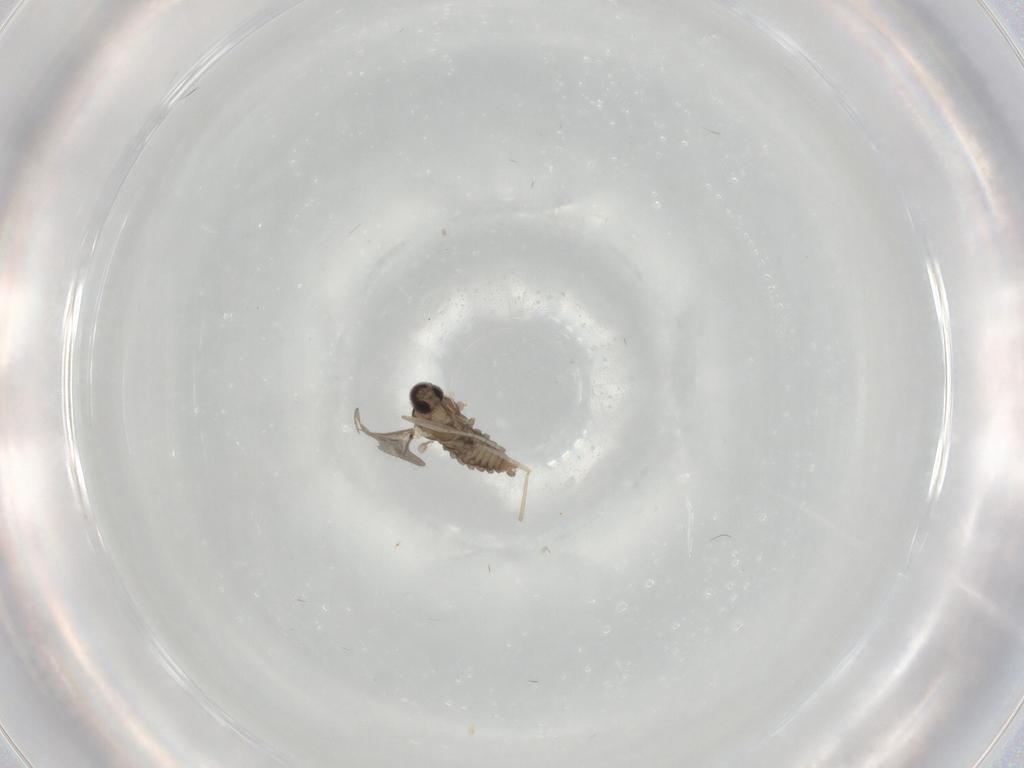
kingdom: Animalia
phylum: Arthropoda
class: Insecta
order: Diptera
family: Cecidomyiidae
